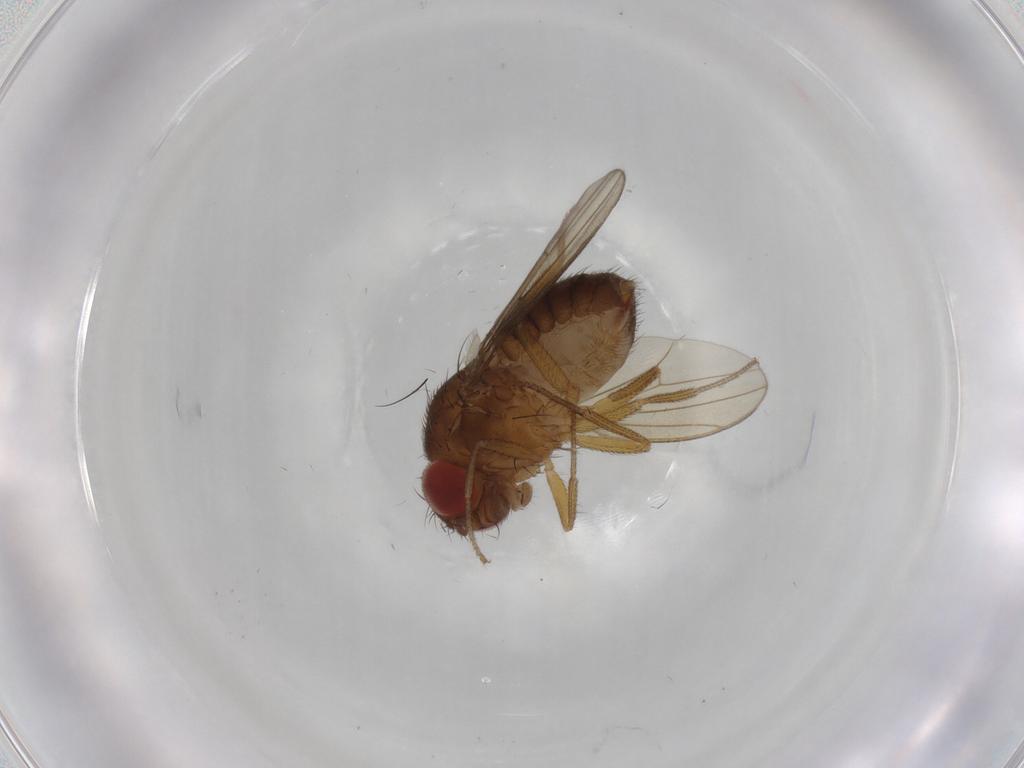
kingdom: Animalia
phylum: Arthropoda
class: Insecta
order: Diptera
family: Drosophilidae
